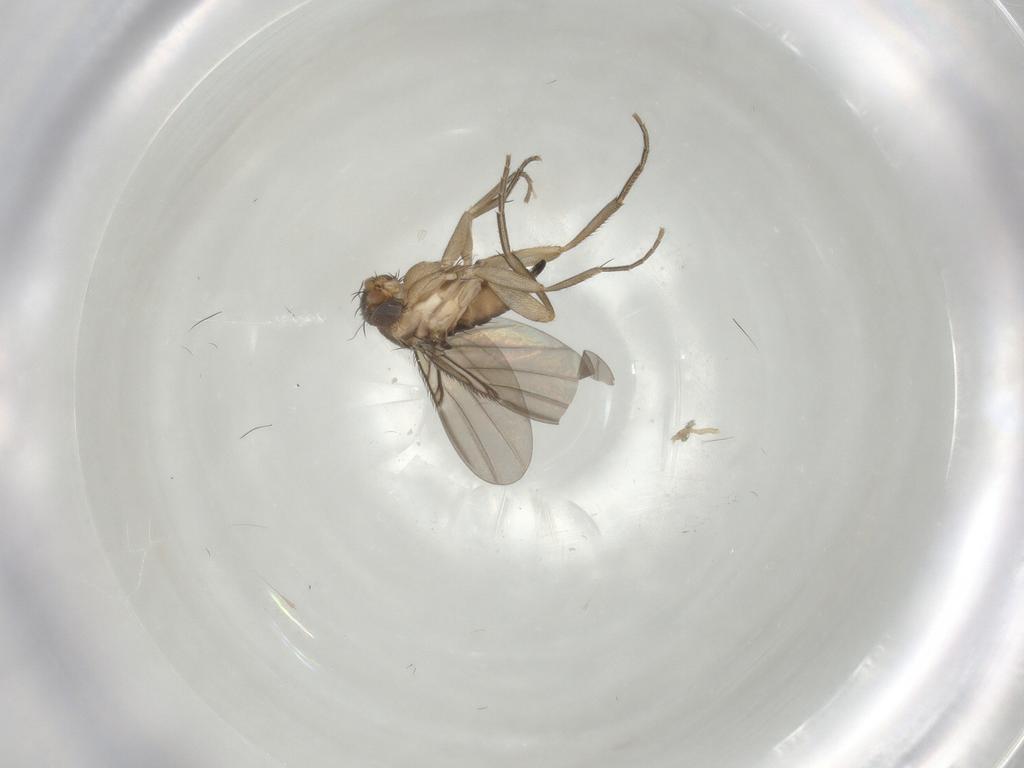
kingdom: Animalia
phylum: Arthropoda
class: Insecta
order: Diptera
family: Phoridae
